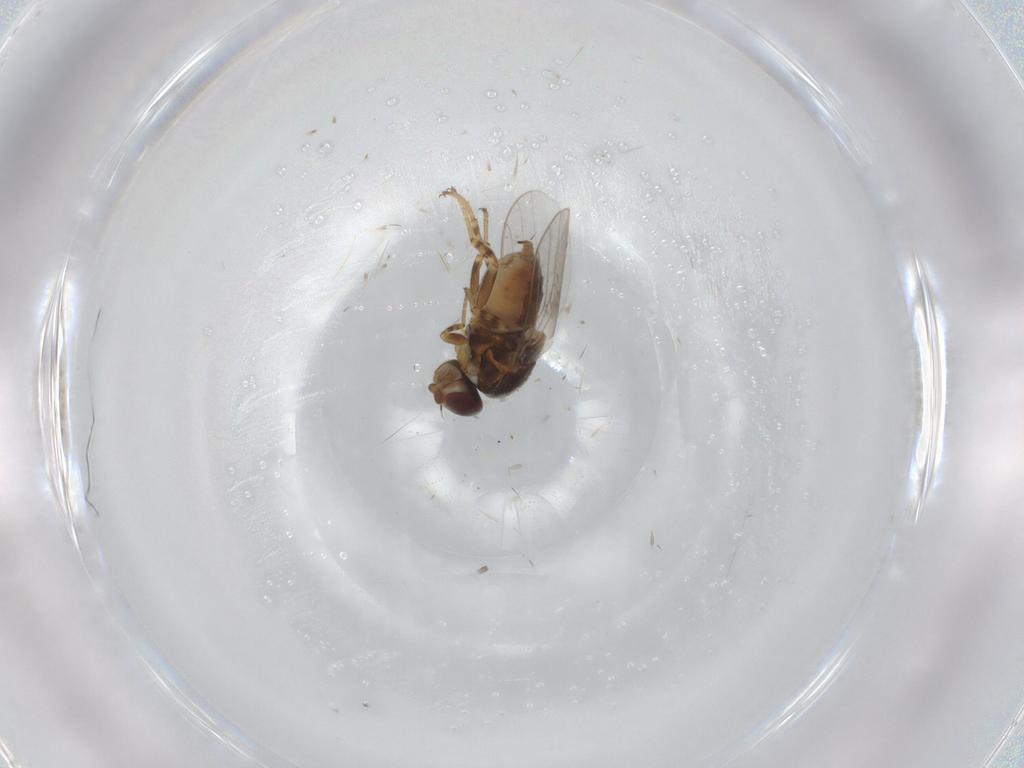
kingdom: Animalia
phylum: Arthropoda
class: Insecta
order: Diptera
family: Chloropidae
